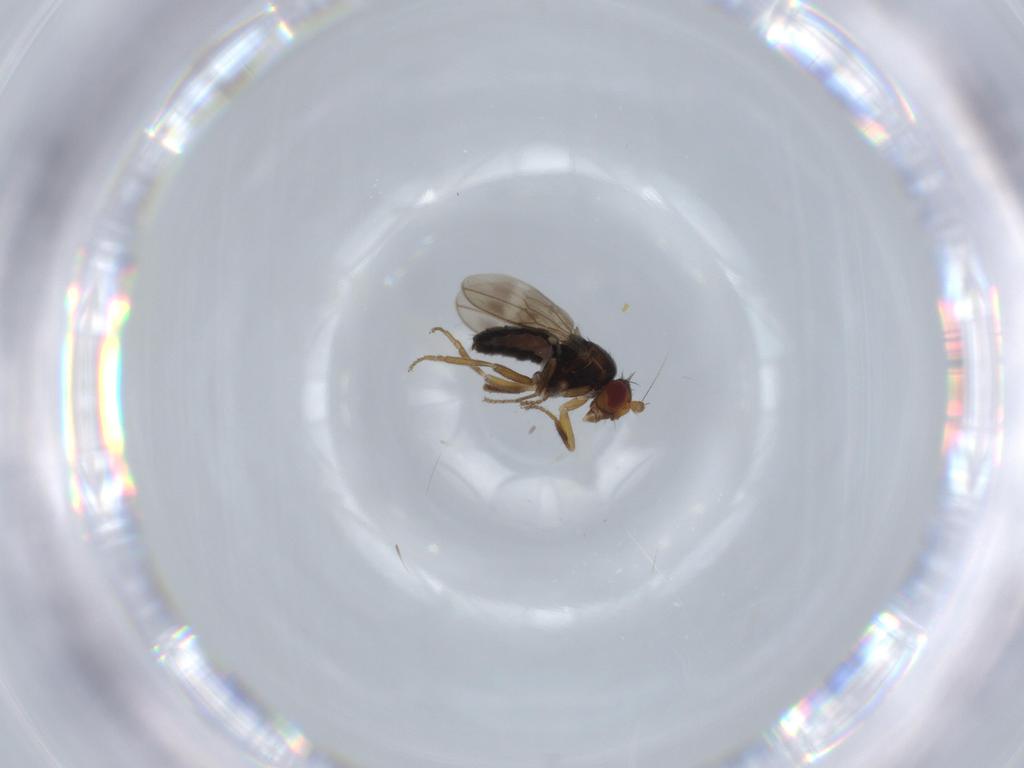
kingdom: Animalia
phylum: Arthropoda
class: Insecta
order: Diptera
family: Sphaeroceridae
